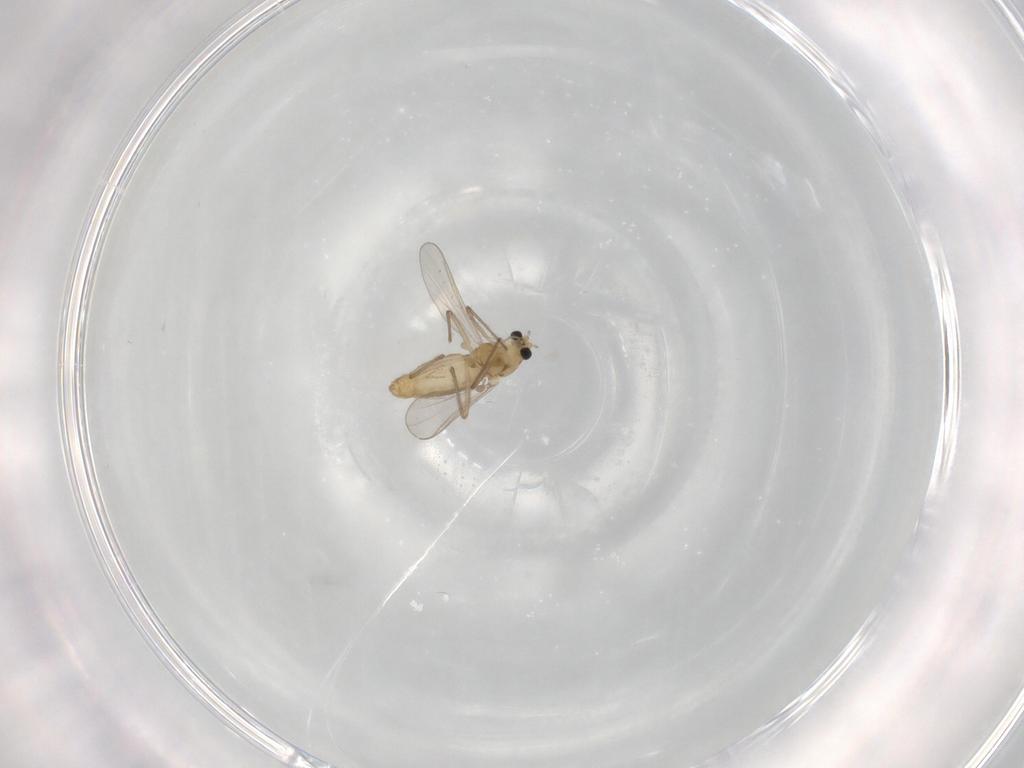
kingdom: Animalia
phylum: Arthropoda
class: Insecta
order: Diptera
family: Chironomidae
